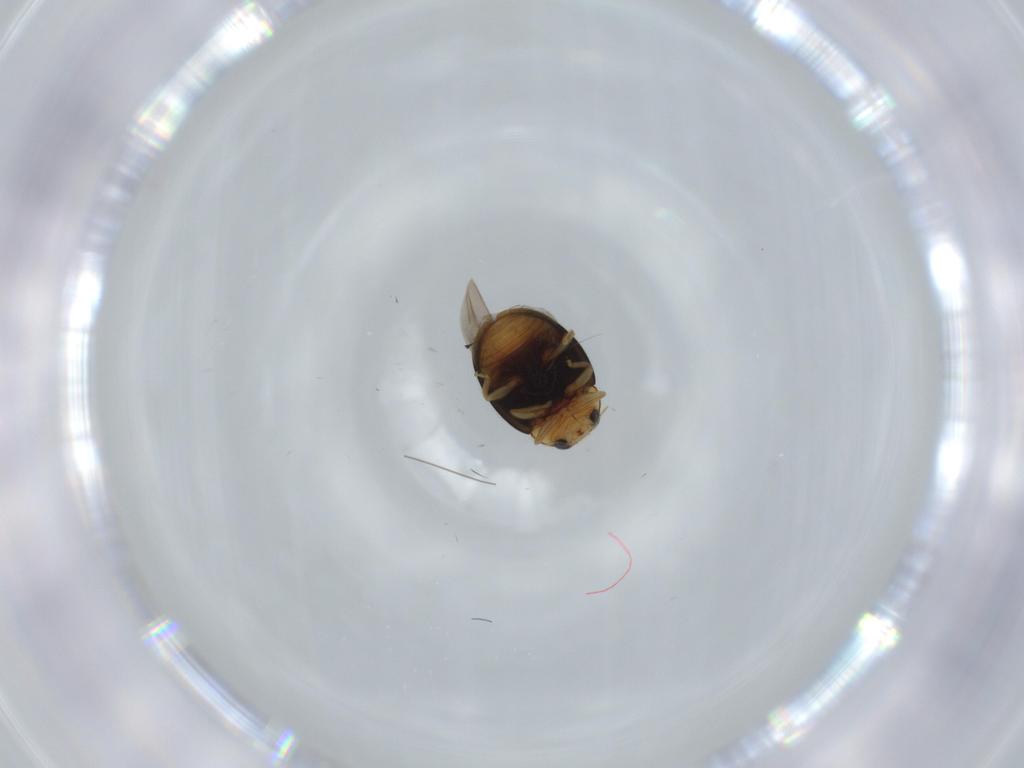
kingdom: Animalia
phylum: Arthropoda
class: Insecta
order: Coleoptera
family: Coccinellidae
